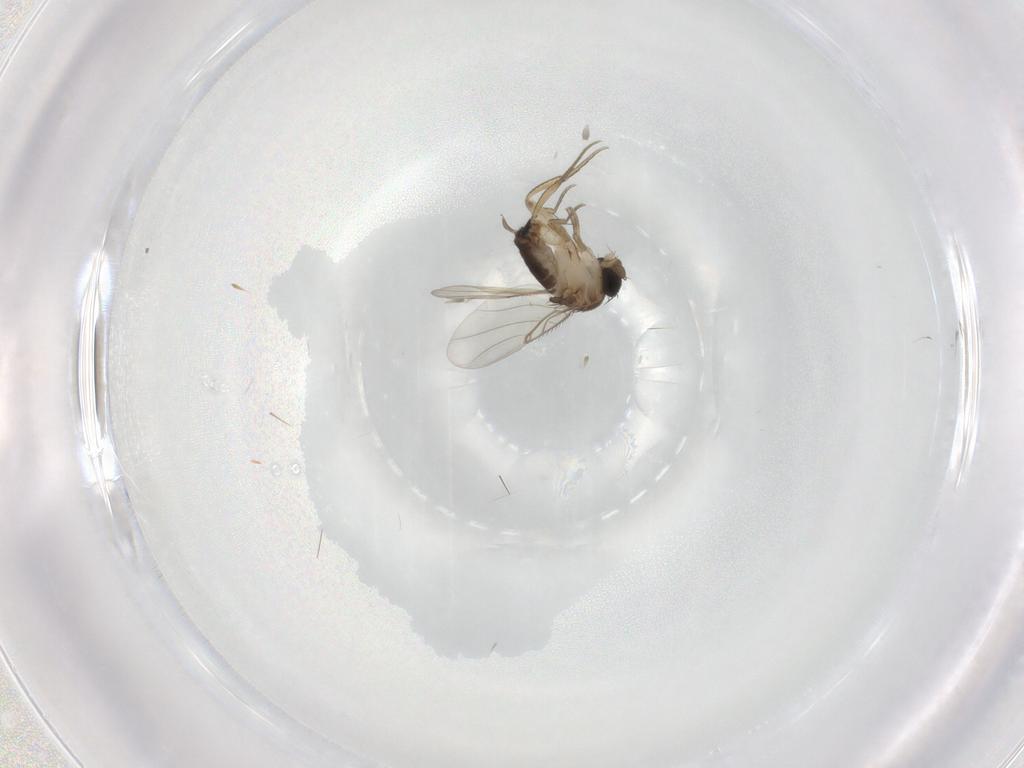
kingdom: Animalia
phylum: Arthropoda
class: Insecta
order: Diptera
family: Phoridae
